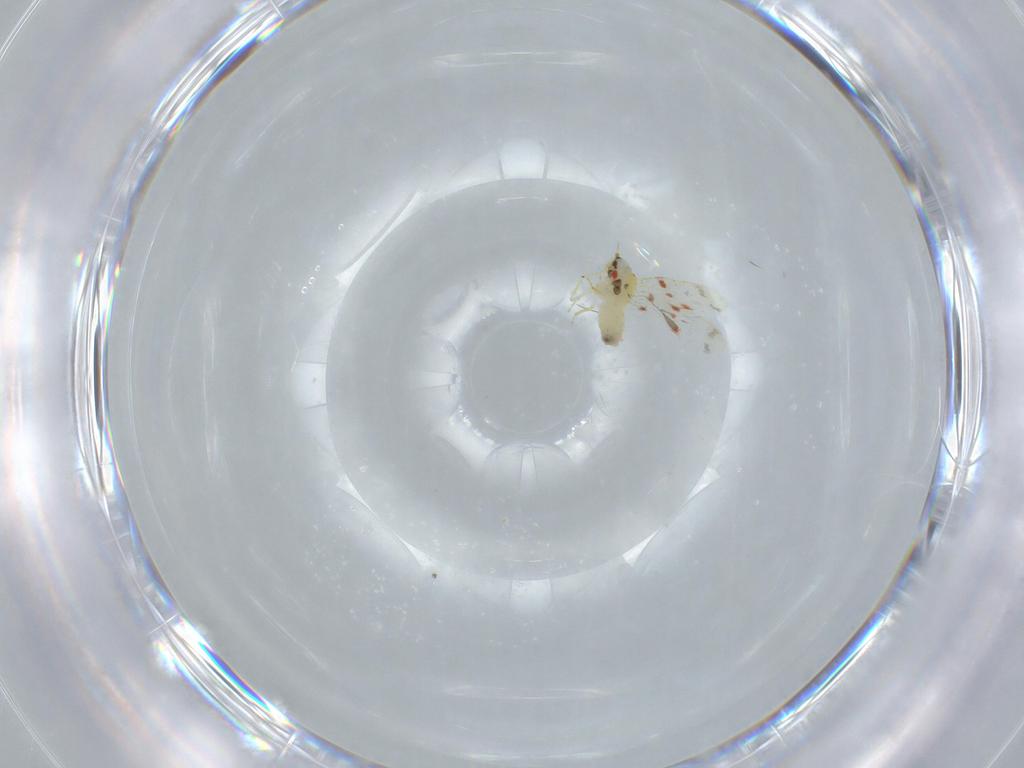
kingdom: Animalia
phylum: Arthropoda
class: Insecta
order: Hemiptera
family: Aleyrodidae
